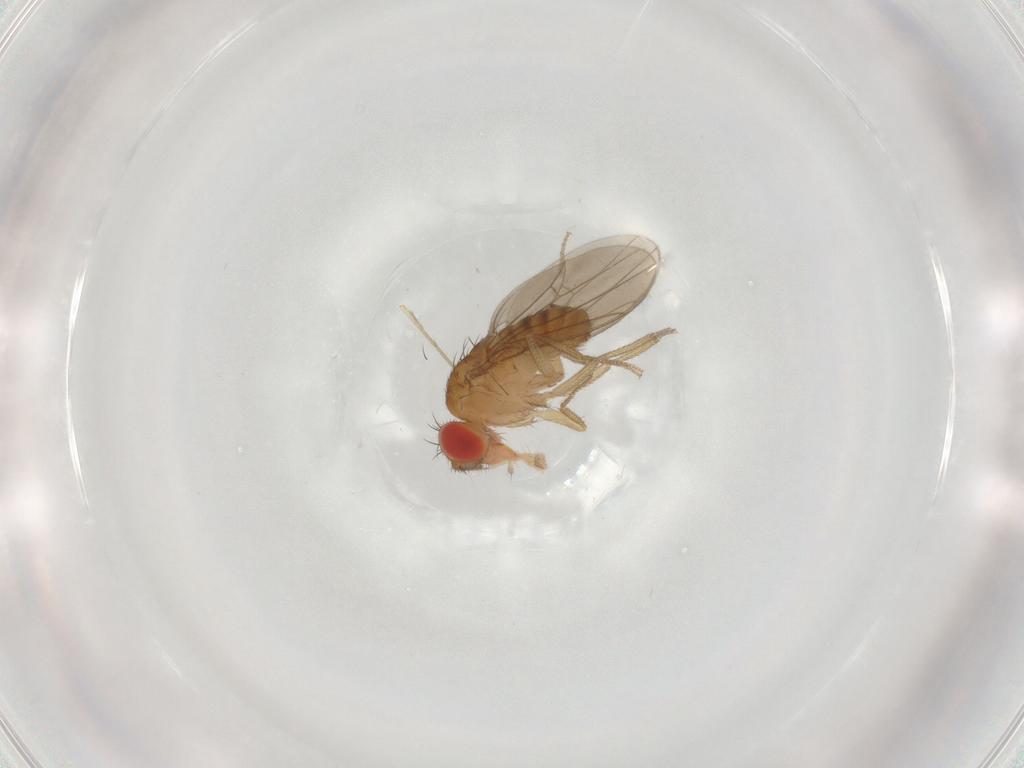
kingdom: Animalia
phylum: Arthropoda
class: Insecta
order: Diptera
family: Drosophilidae
